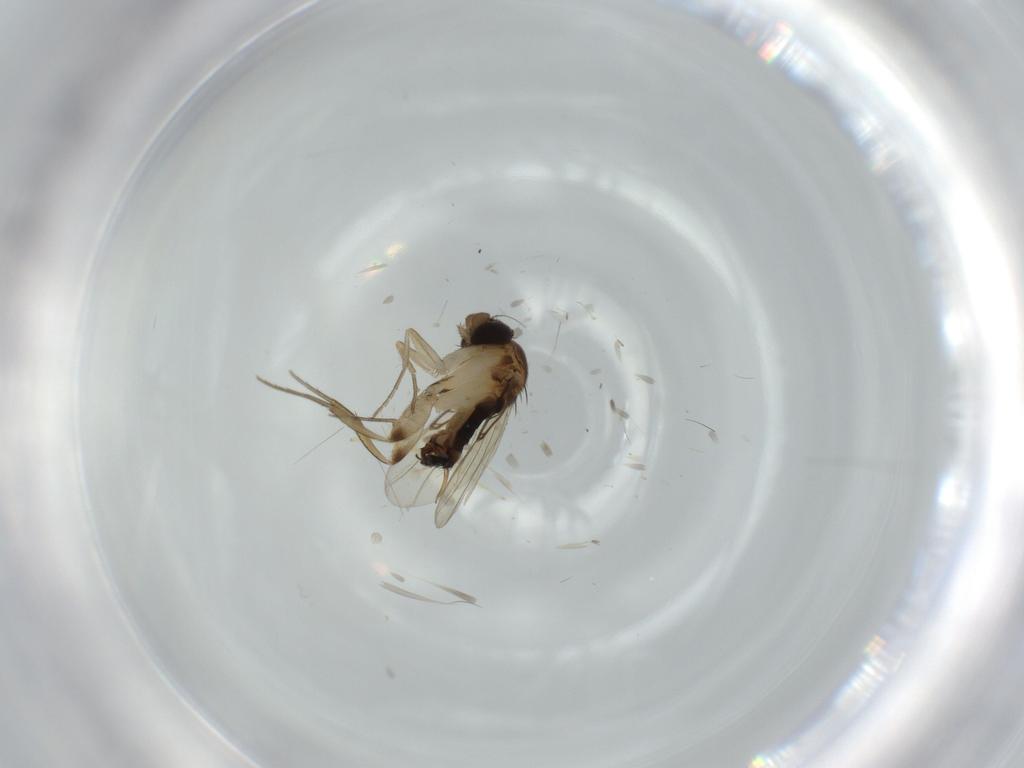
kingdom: Animalia
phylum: Arthropoda
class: Insecta
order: Diptera
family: Phoridae
